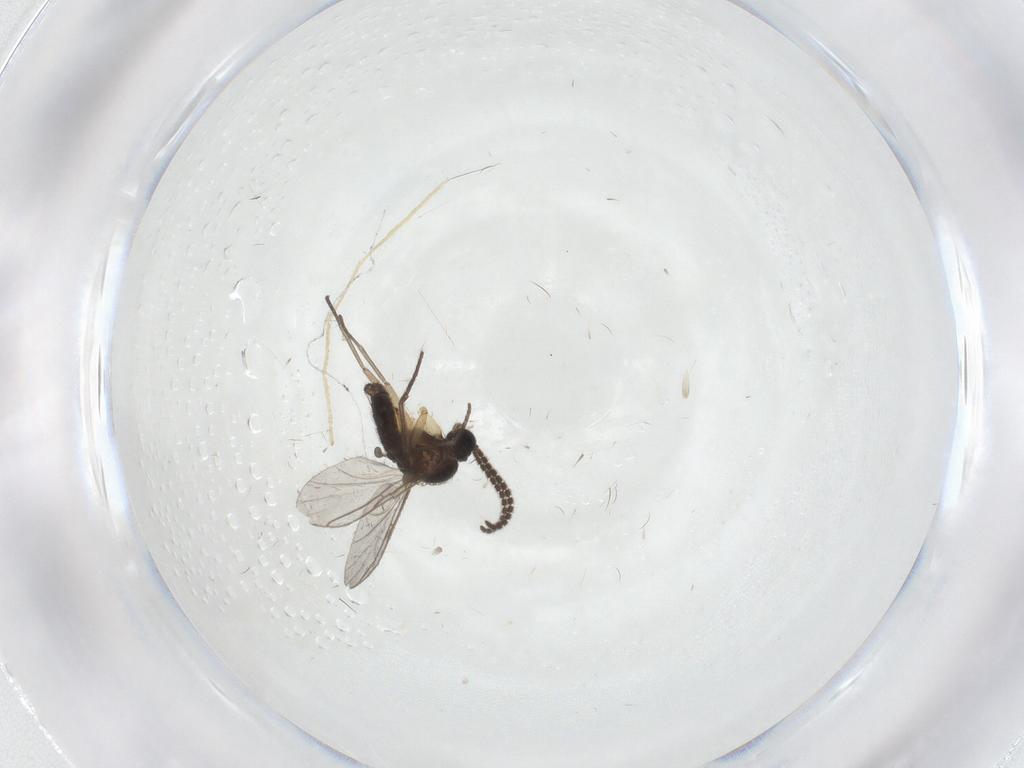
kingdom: Animalia
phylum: Arthropoda
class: Insecta
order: Diptera
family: Sciaridae
